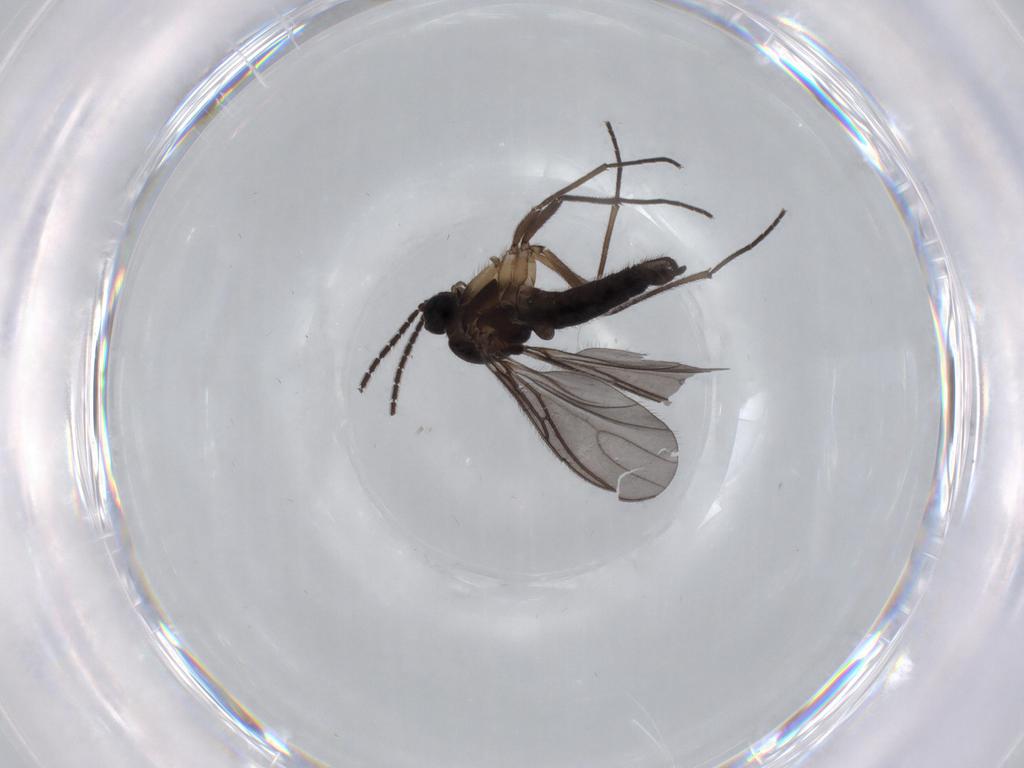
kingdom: Animalia
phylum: Arthropoda
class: Insecta
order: Diptera
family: Sciaridae
